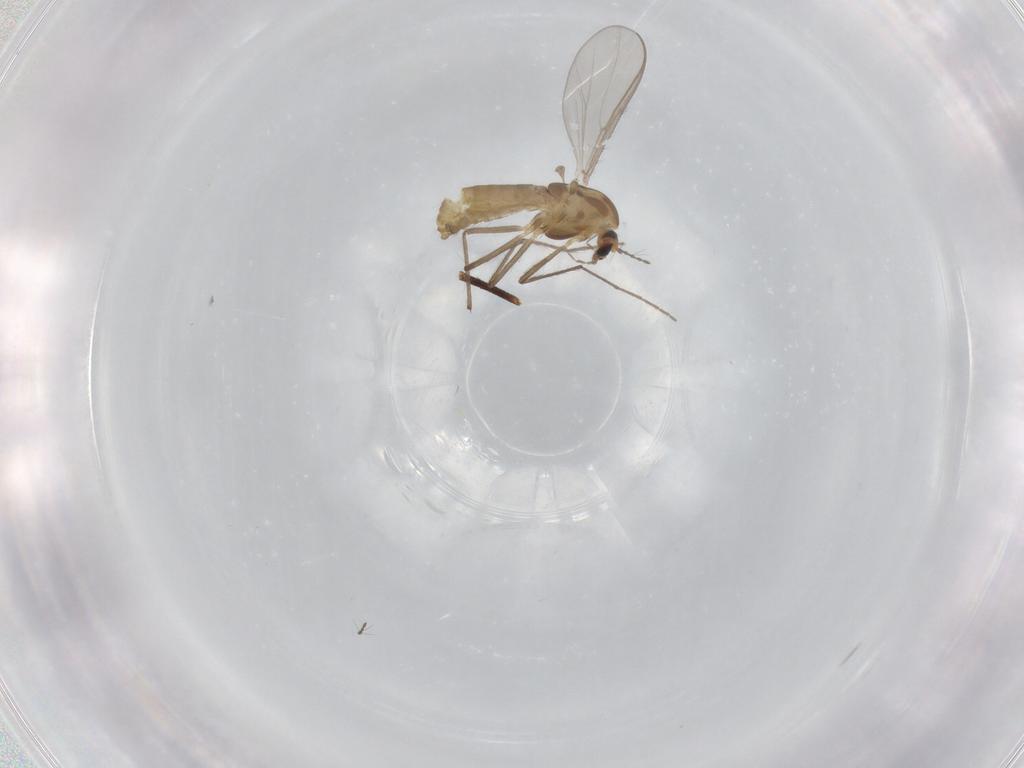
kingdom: Animalia
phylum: Arthropoda
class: Insecta
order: Diptera
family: Chironomidae
